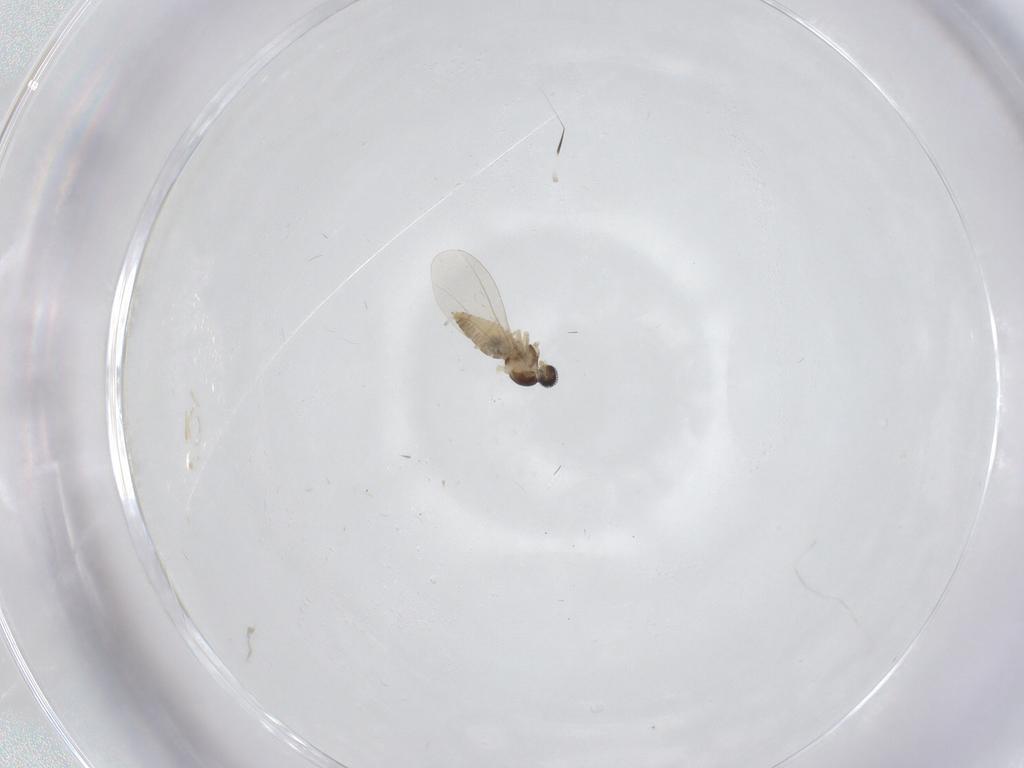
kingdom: Animalia
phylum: Arthropoda
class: Insecta
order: Diptera
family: Cecidomyiidae
